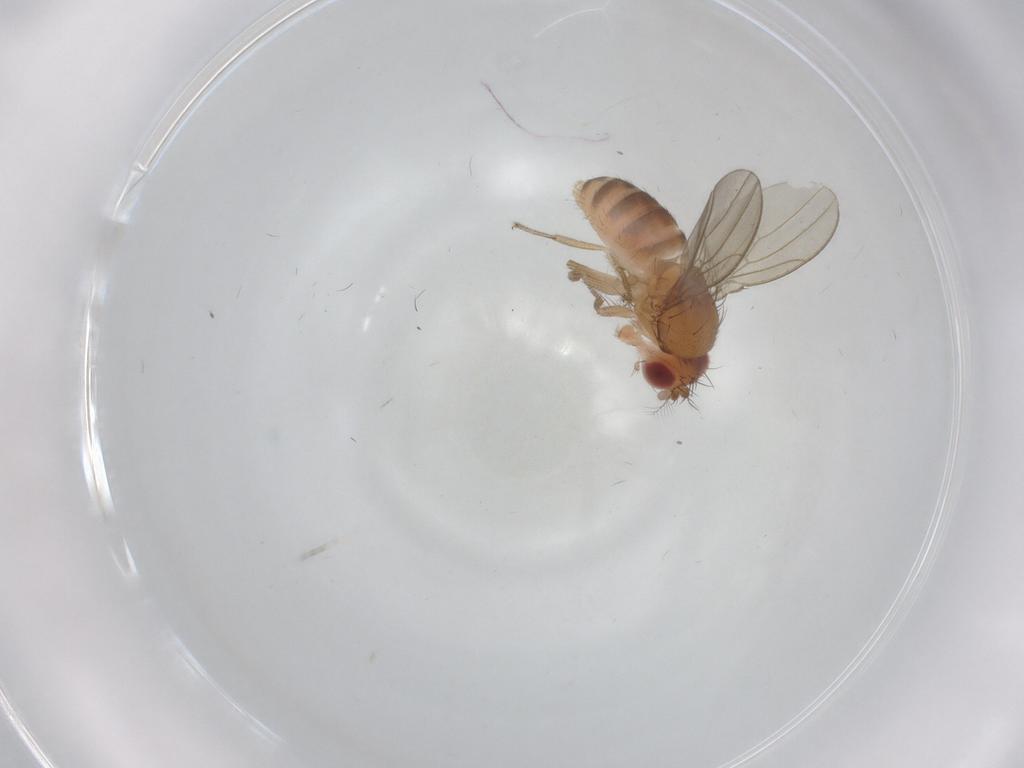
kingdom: Animalia
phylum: Arthropoda
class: Insecta
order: Diptera
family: Drosophilidae
